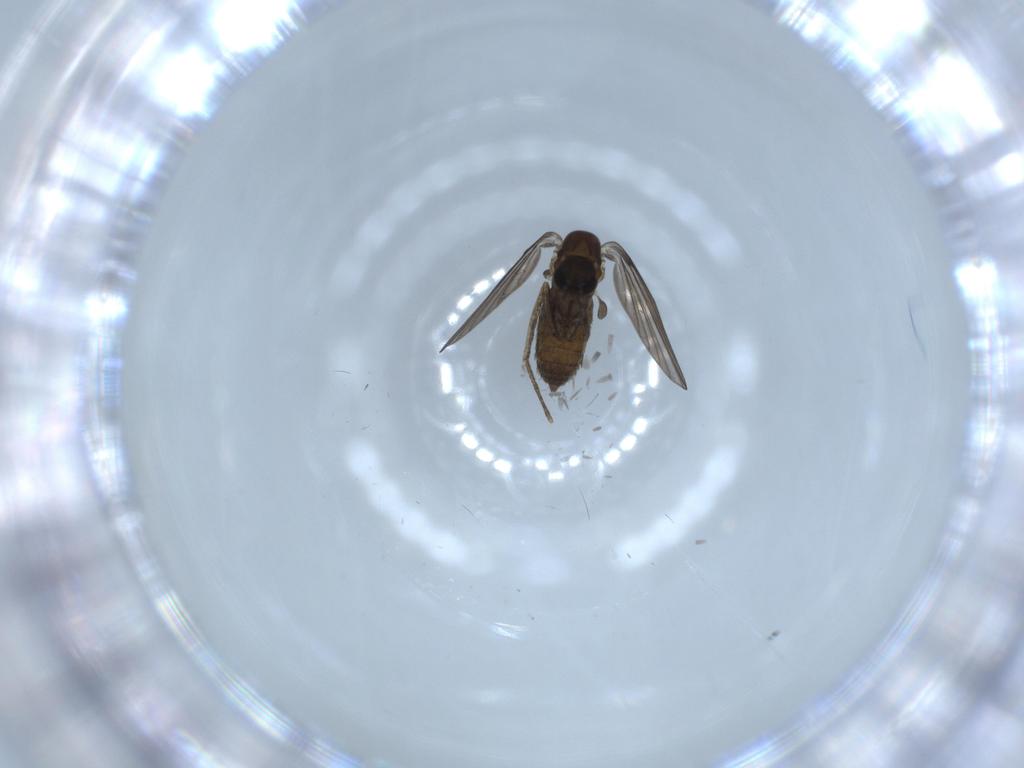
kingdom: Animalia
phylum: Arthropoda
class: Insecta
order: Diptera
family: Psychodidae
